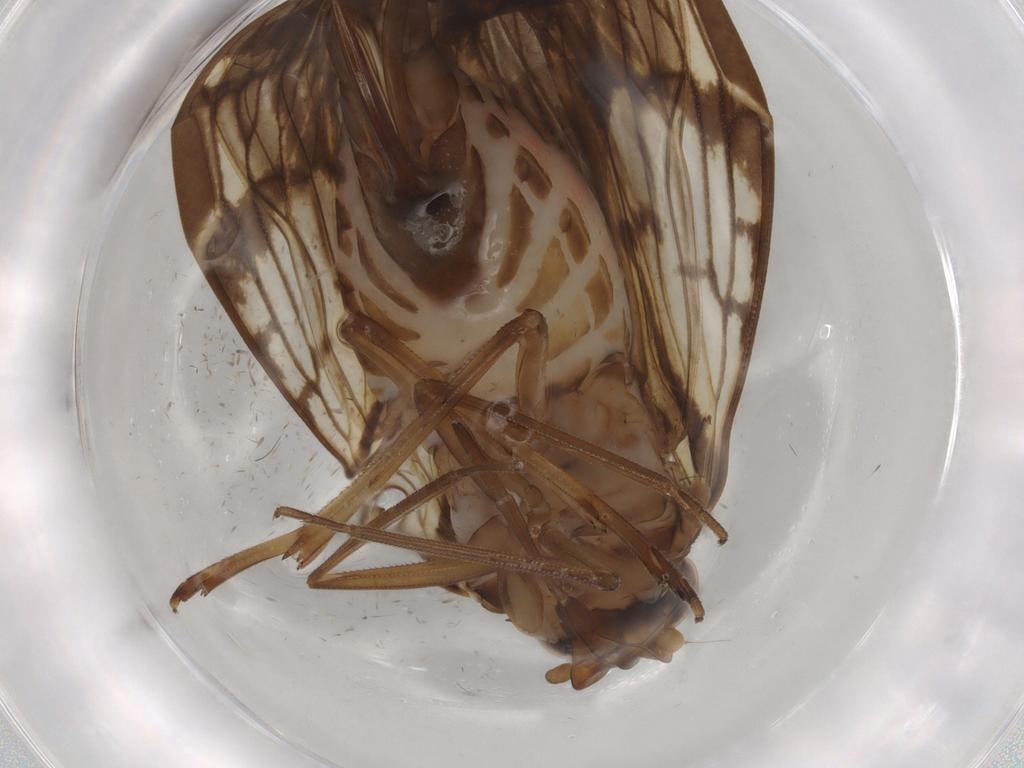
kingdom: Animalia
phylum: Arthropoda
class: Insecta
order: Hemiptera
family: Cixiidae
